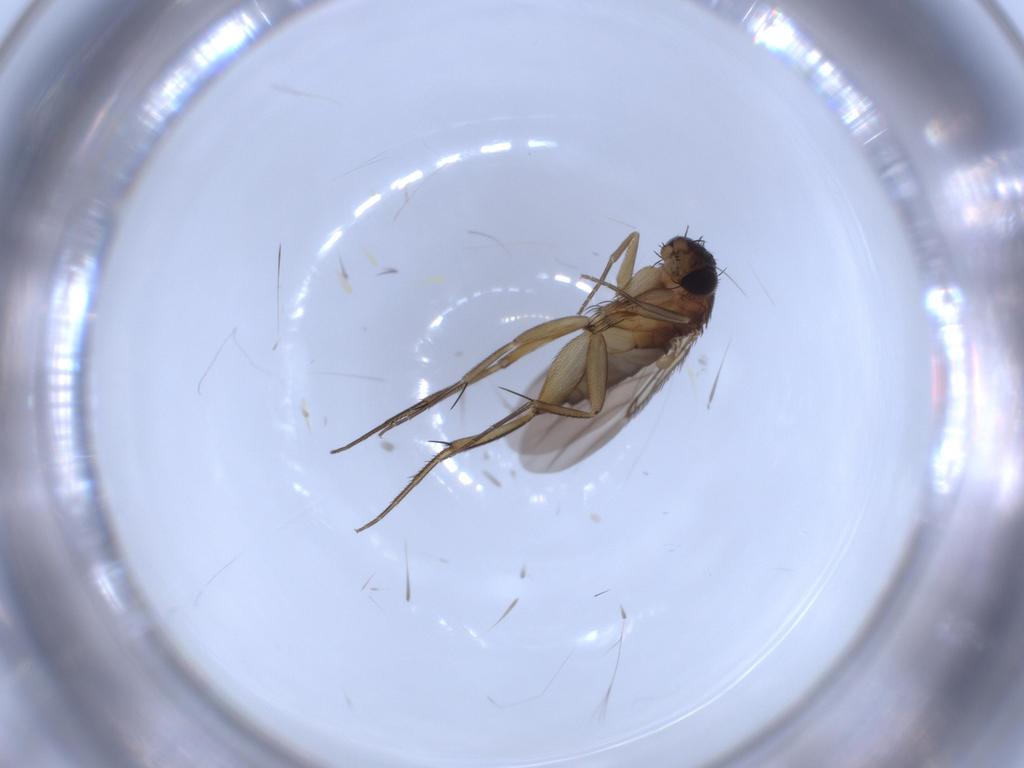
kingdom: Animalia
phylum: Arthropoda
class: Insecta
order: Diptera
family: Phoridae
